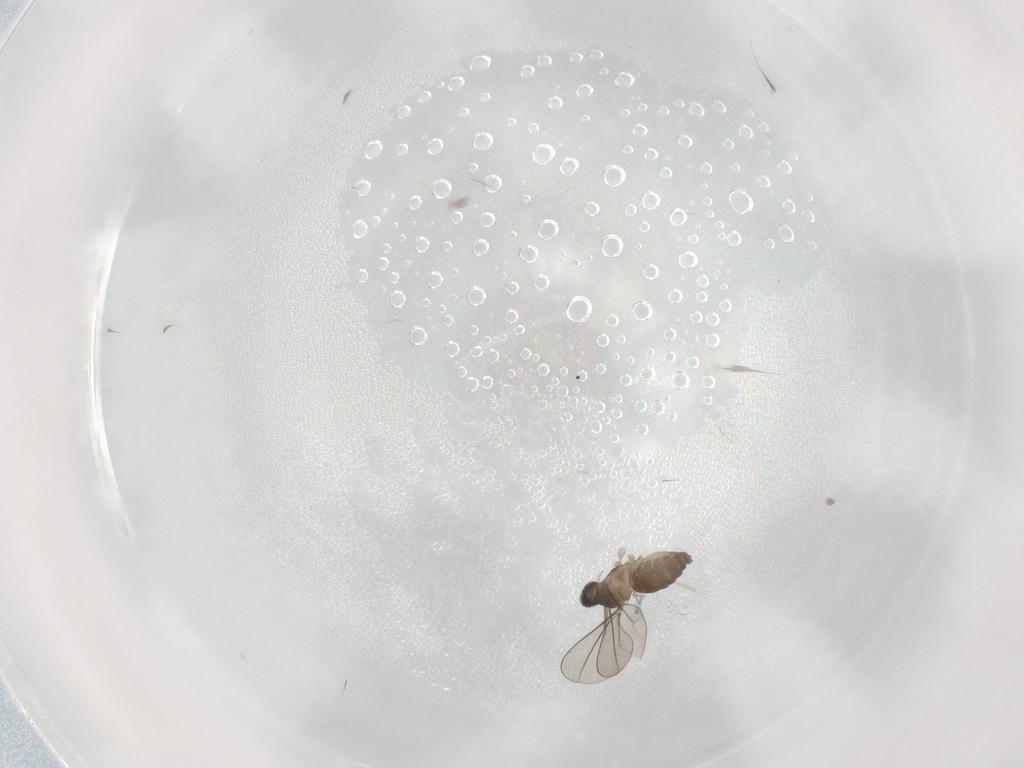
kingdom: Animalia
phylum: Arthropoda
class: Insecta
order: Diptera
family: Cecidomyiidae
